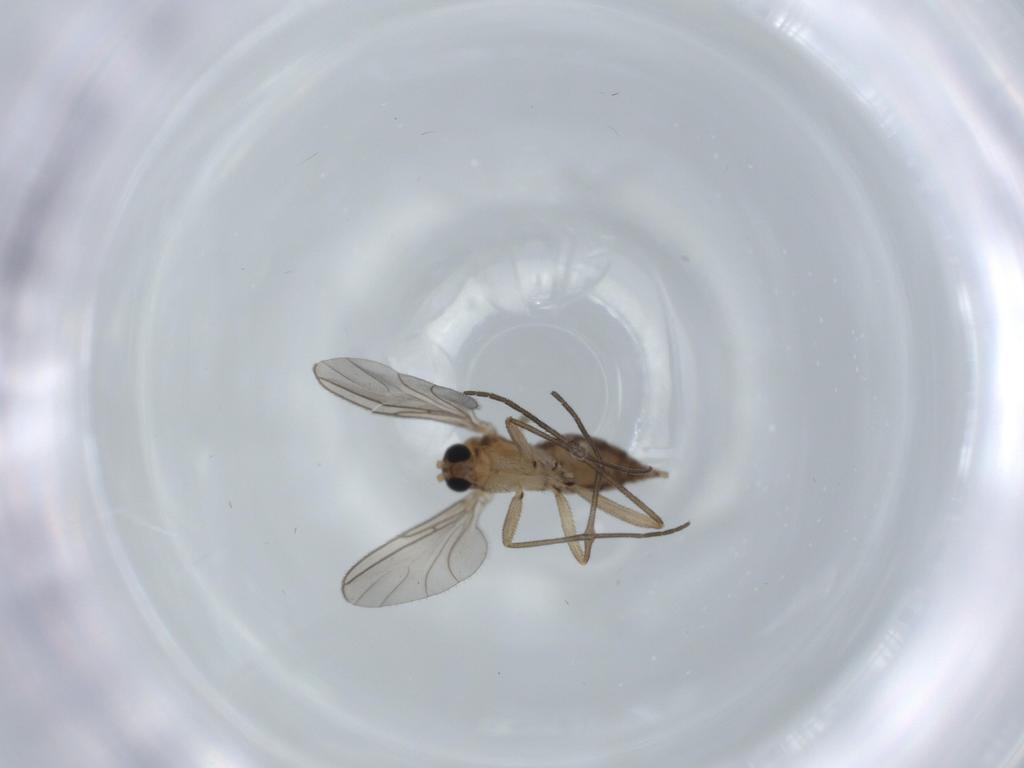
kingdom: Animalia
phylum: Arthropoda
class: Insecta
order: Diptera
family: Sciaridae
